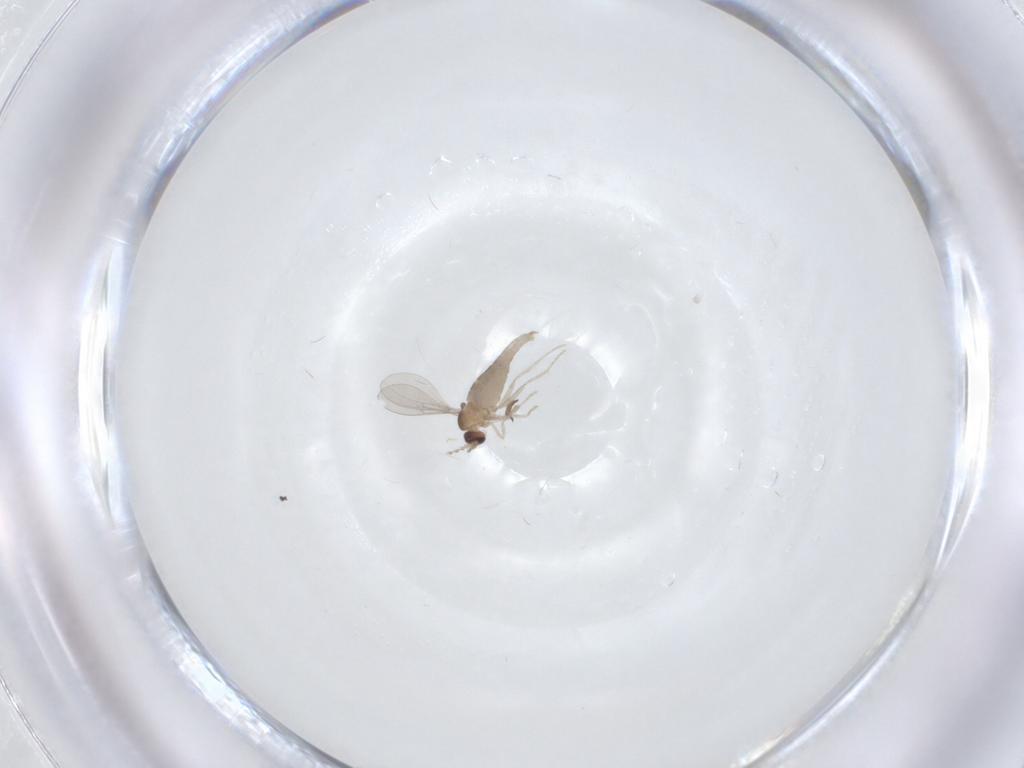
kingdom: Animalia
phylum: Arthropoda
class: Insecta
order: Diptera
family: Cecidomyiidae
